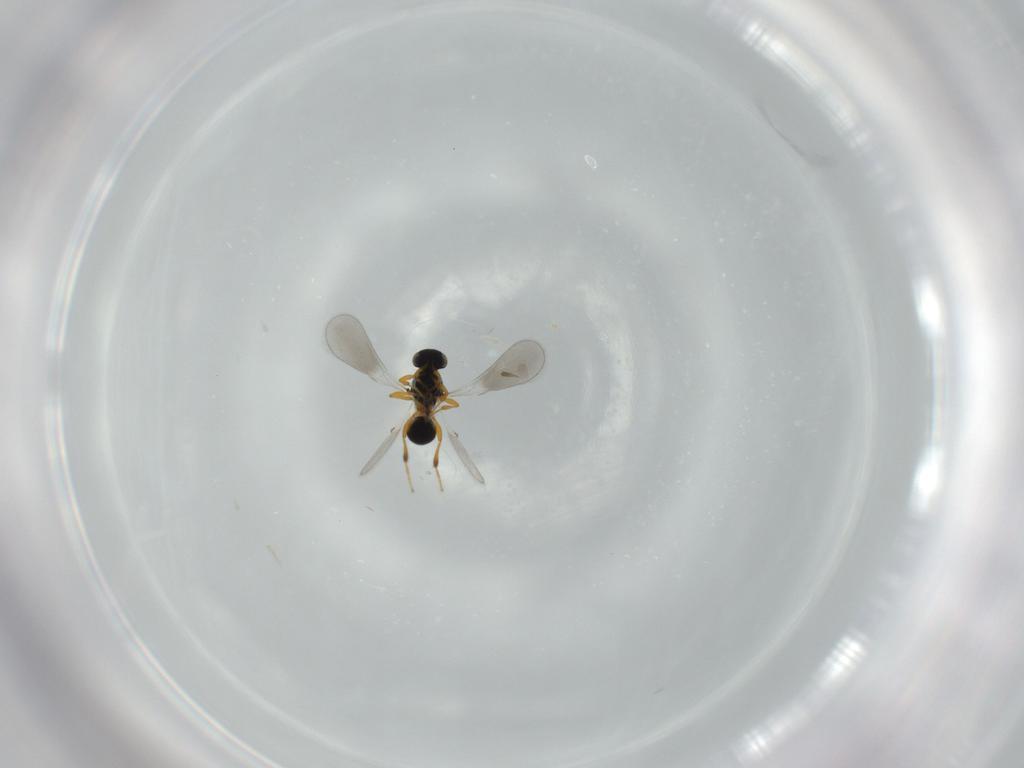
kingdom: Animalia
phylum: Arthropoda
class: Insecta
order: Hymenoptera
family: Platygastridae
